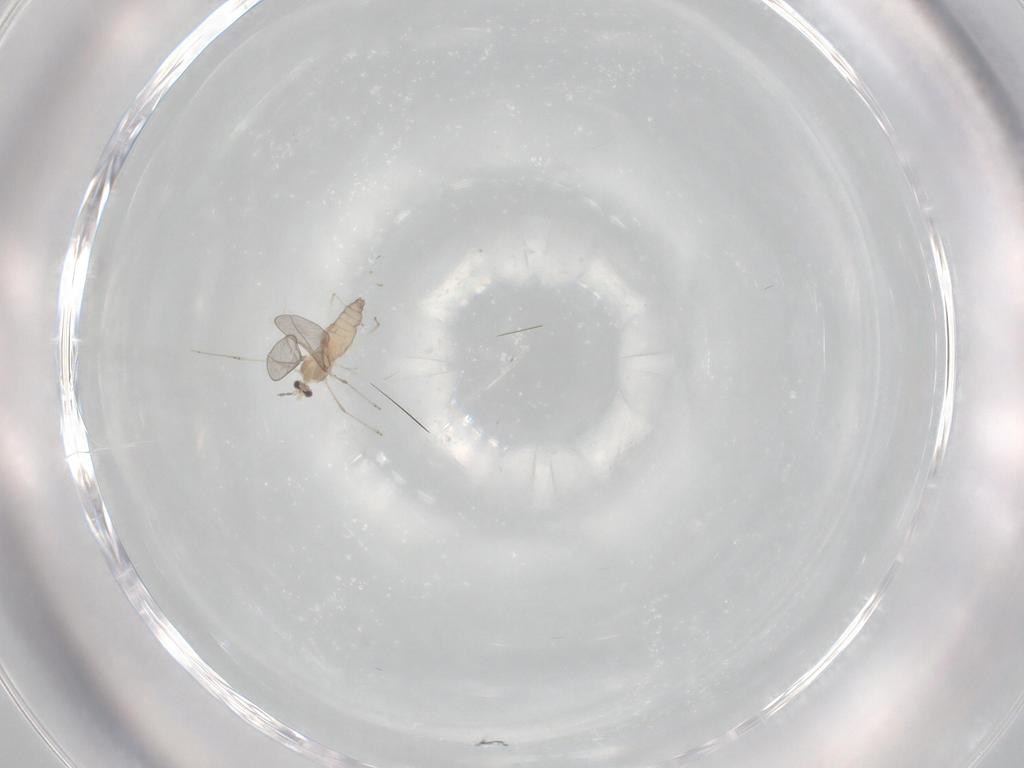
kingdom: Animalia
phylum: Arthropoda
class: Insecta
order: Diptera
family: Cecidomyiidae
